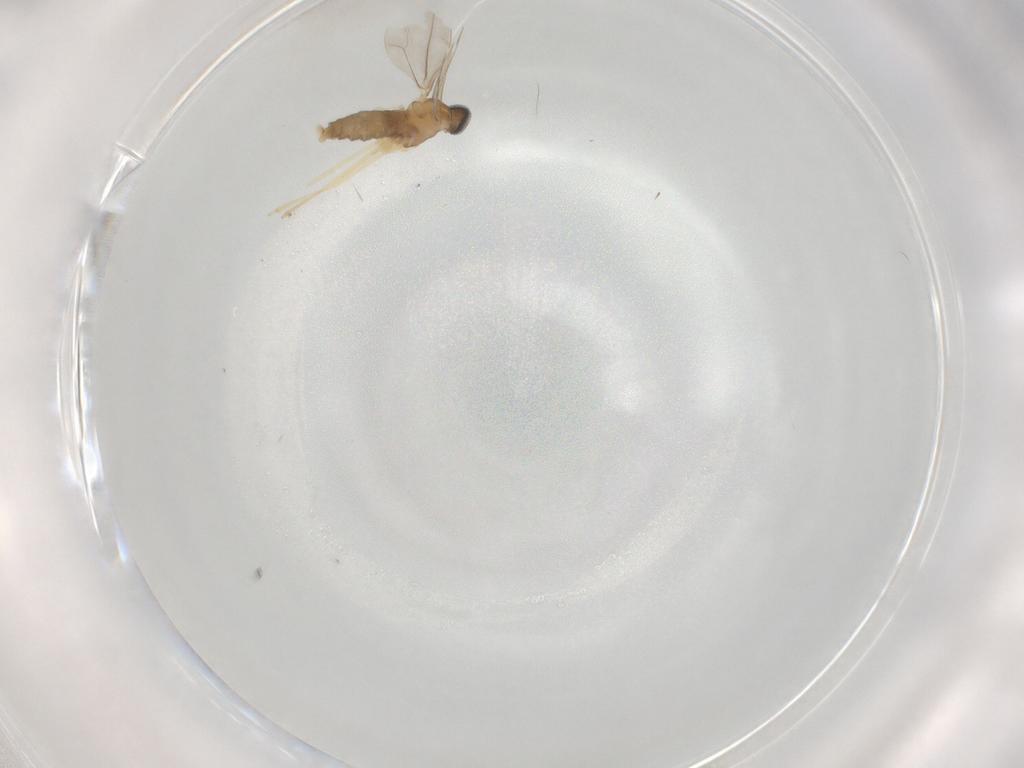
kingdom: Animalia
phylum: Arthropoda
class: Insecta
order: Diptera
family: Cecidomyiidae
